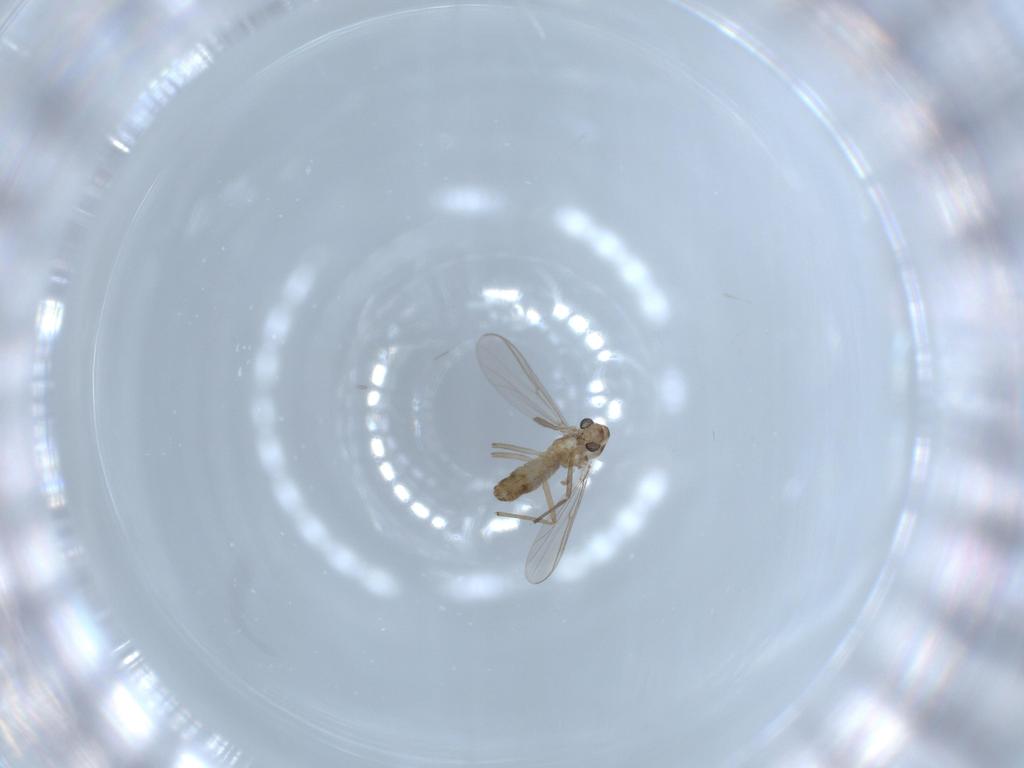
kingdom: Animalia
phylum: Arthropoda
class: Insecta
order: Diptera
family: Chironomidae
